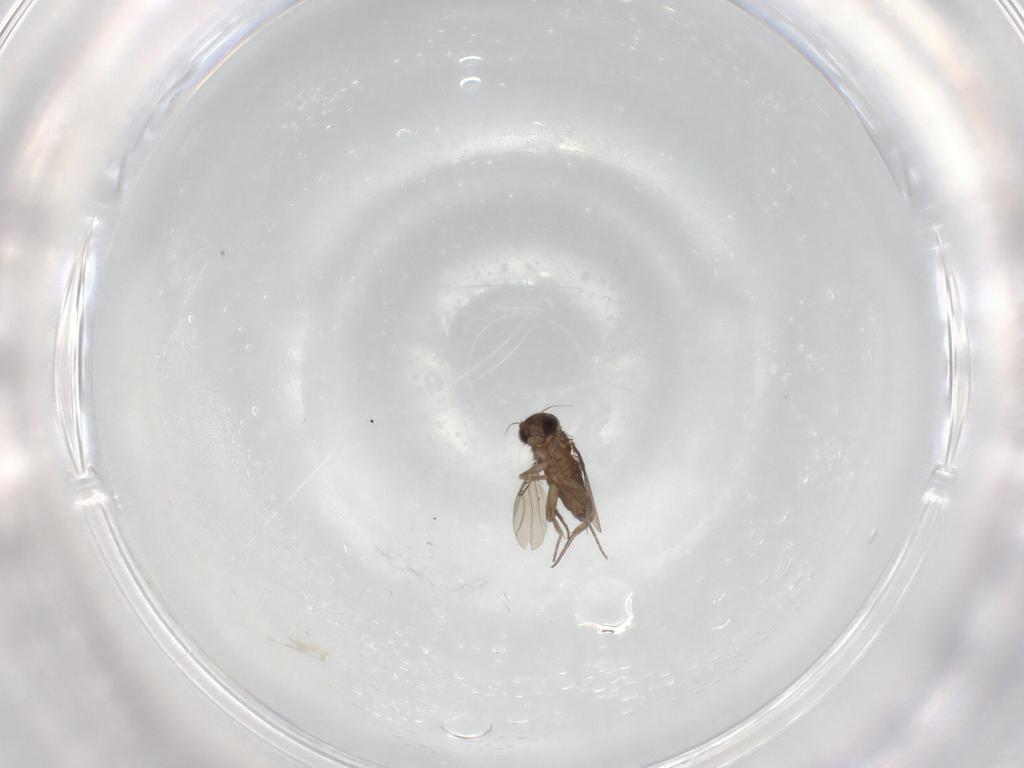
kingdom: Animalia
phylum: Arthropoda
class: Insecta
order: Diptera
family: Phoridae
